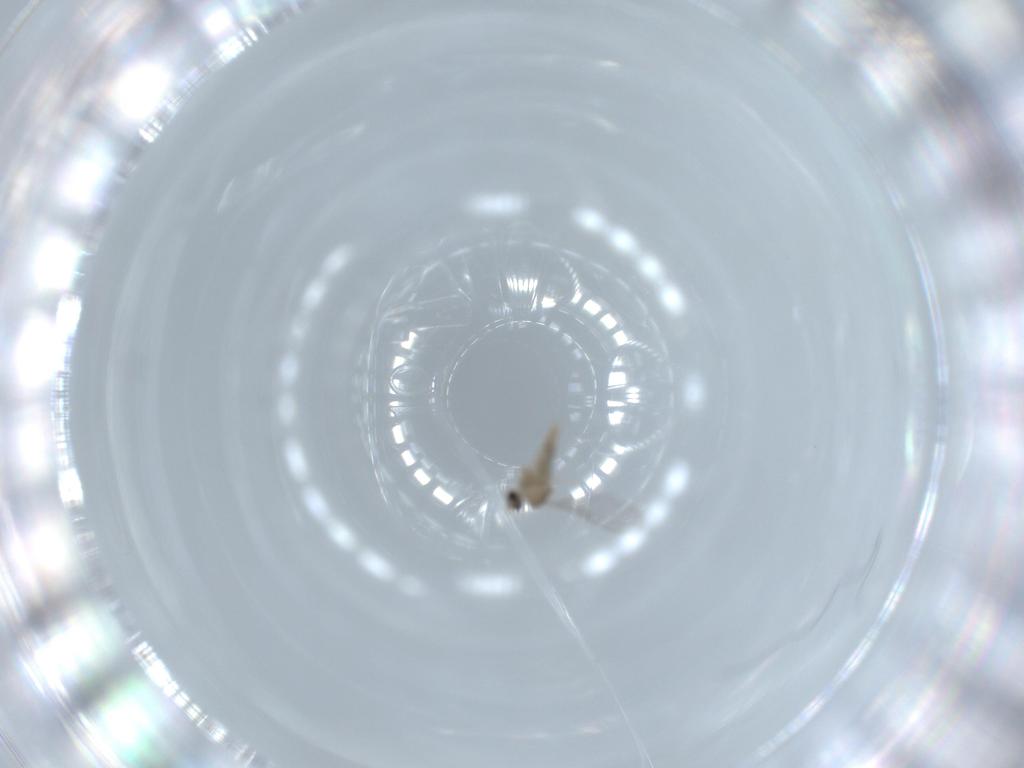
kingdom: Animalia
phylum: Arthropoda
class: Insecta
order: Diptera
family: Cecidomyiidae
